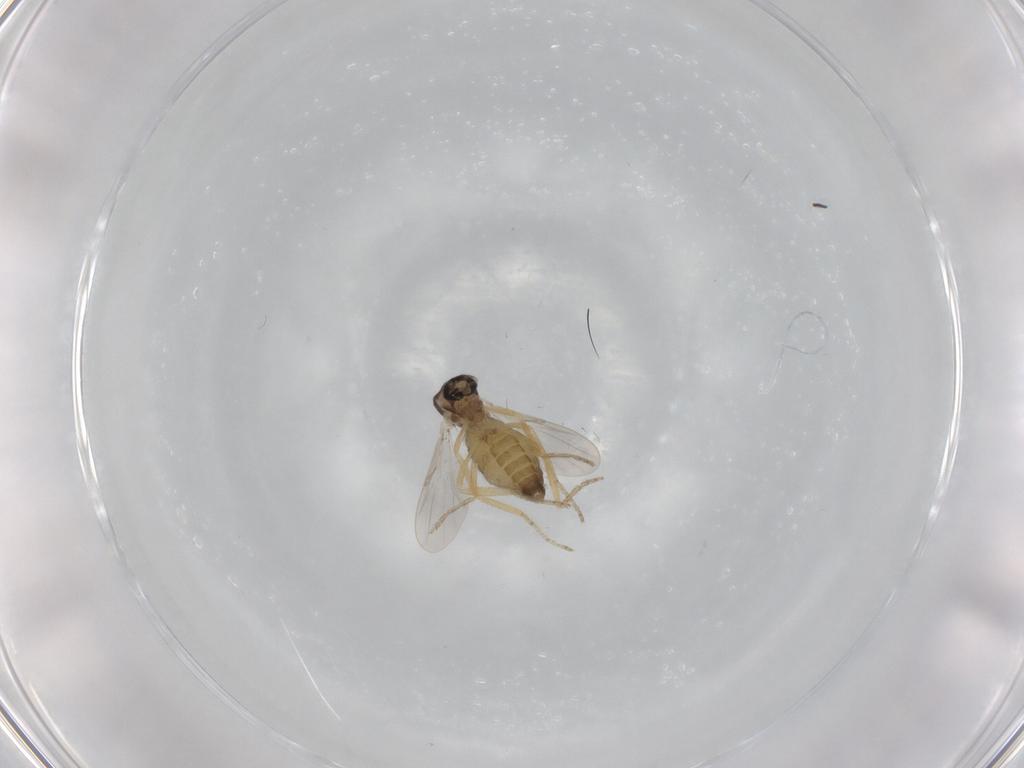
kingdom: Animalia
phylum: Arthropoda
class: Insecta
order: Diptera
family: Ceratopogonidae
